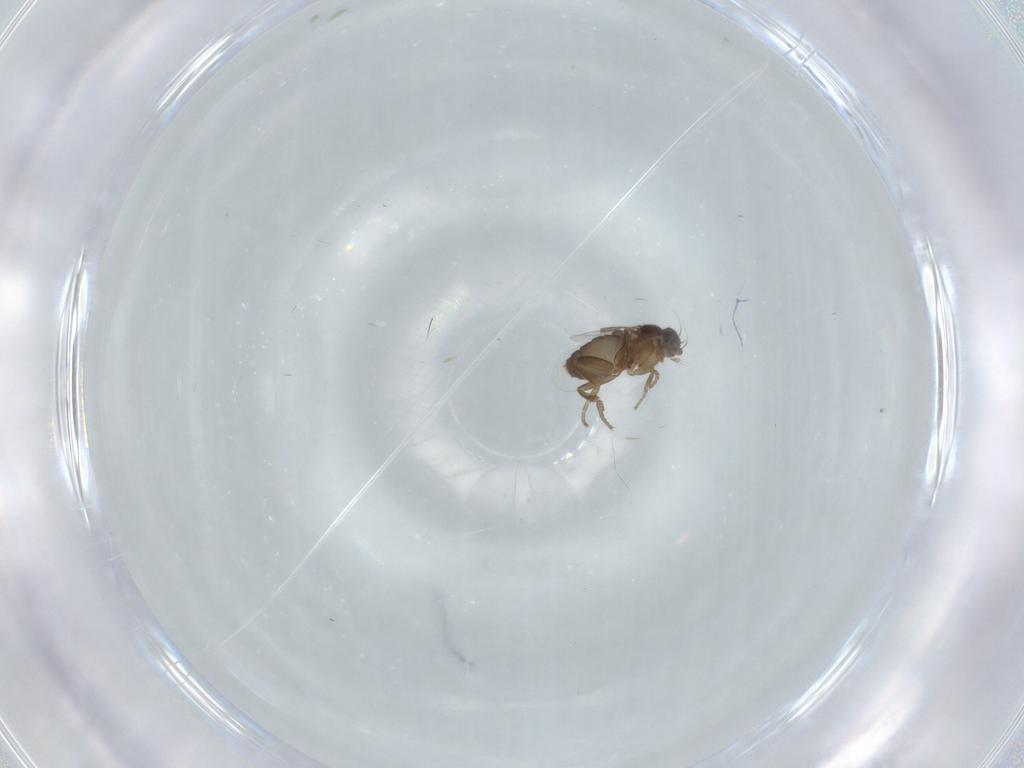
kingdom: Animalia
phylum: Arthropoda
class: Insecta
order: Diptera
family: Phoridae
